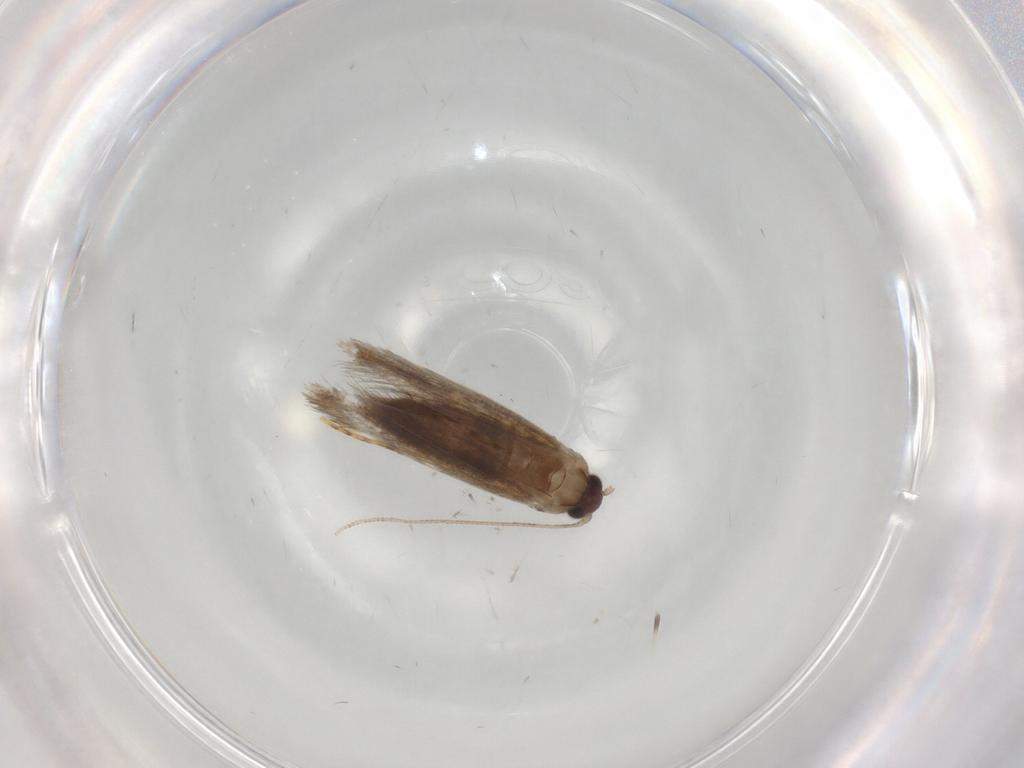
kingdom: Animalia
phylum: Arthropoda
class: Insecta
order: Lepidoptera
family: Tineidae
